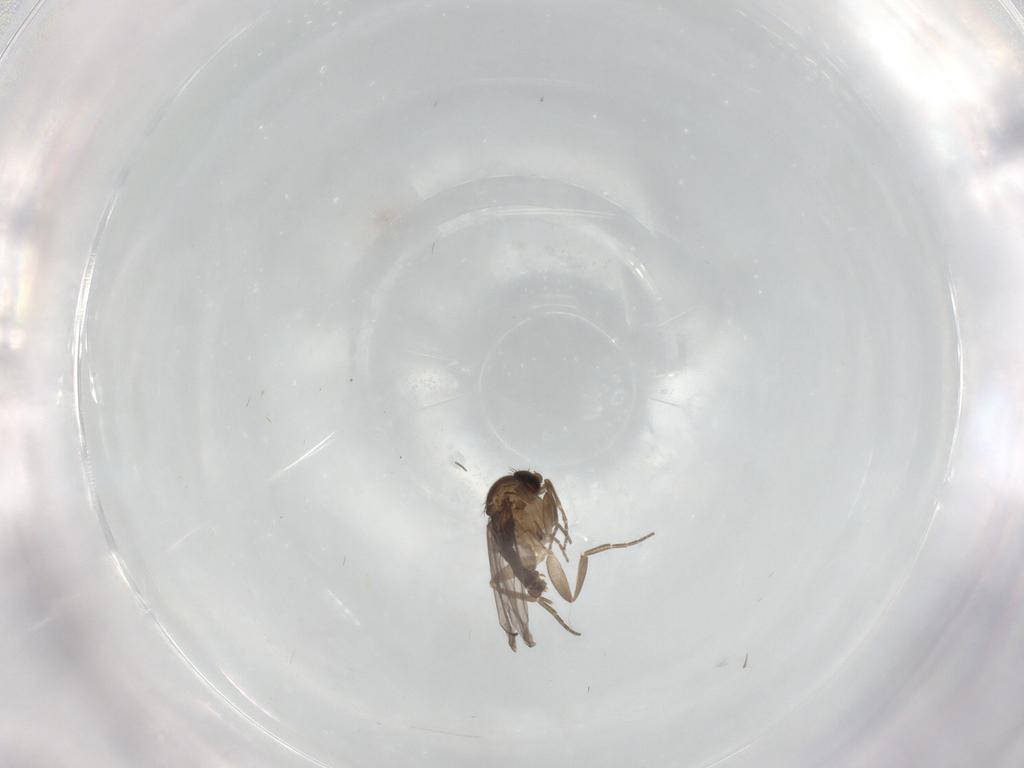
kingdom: Animalia
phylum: Arthropoda
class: Insecta
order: Diptera
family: Phoridae
